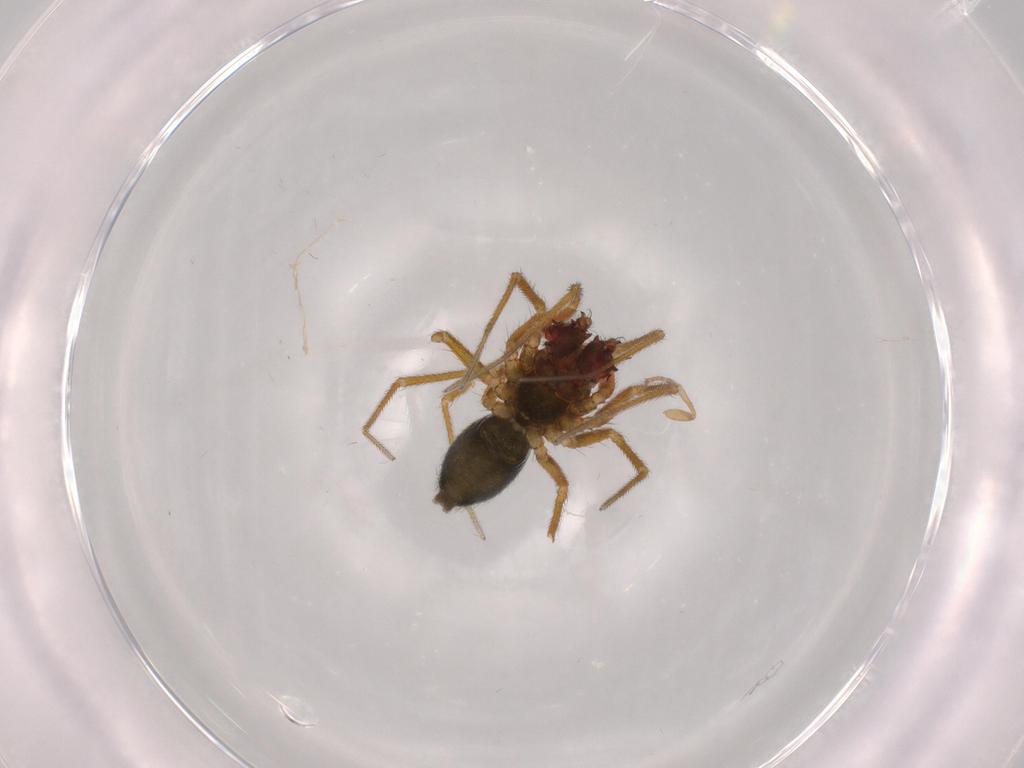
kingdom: Animalia
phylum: Arthropoda
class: Arachnida
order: Araneae
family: Linyphiidae
